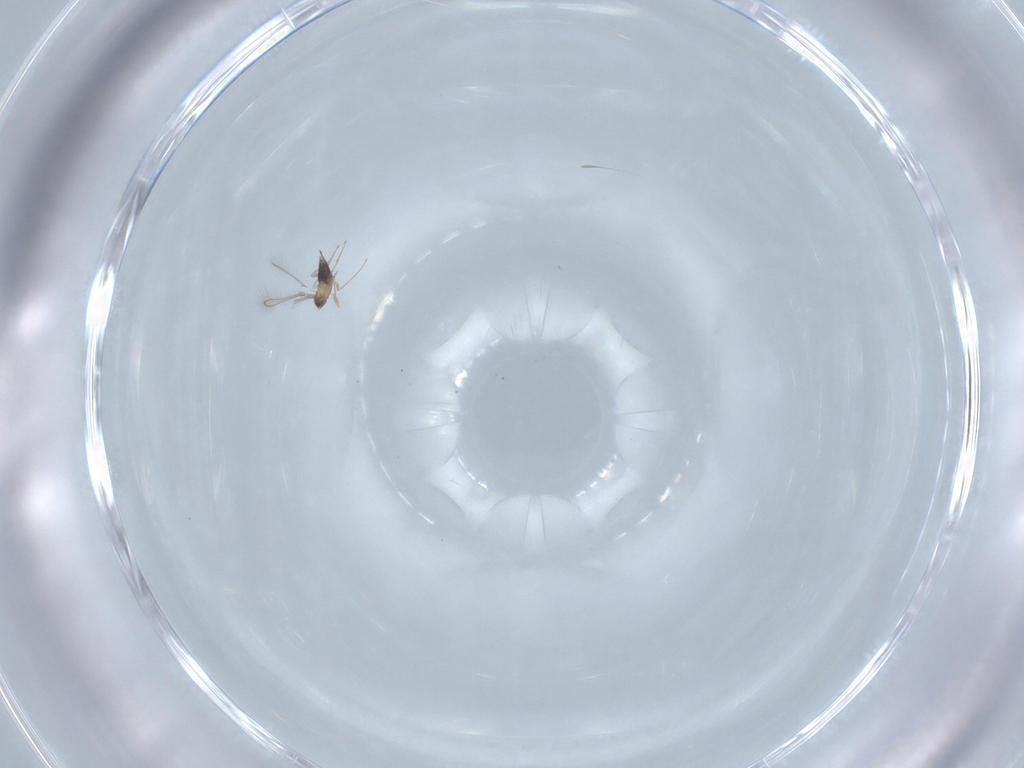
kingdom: Animalia
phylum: Arthropoda
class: Insecta
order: Hymenoptera
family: Mymaridae
